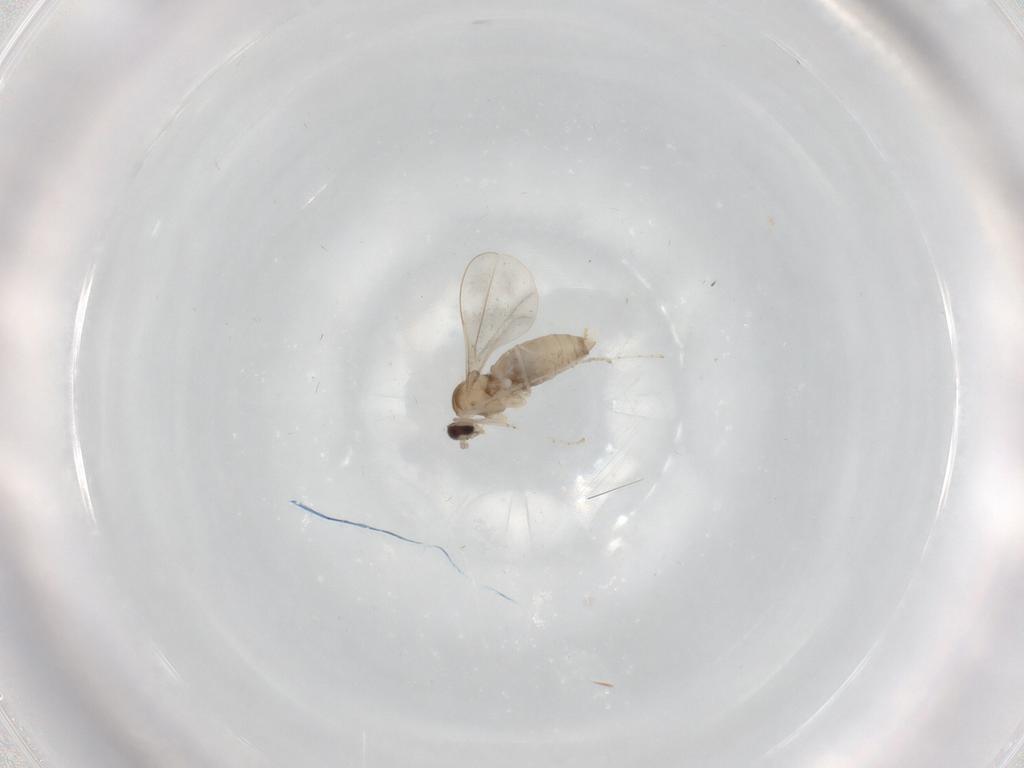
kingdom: Animalia
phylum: Arthropoda
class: Insecta
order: Diptera
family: Cecidomyiidae
